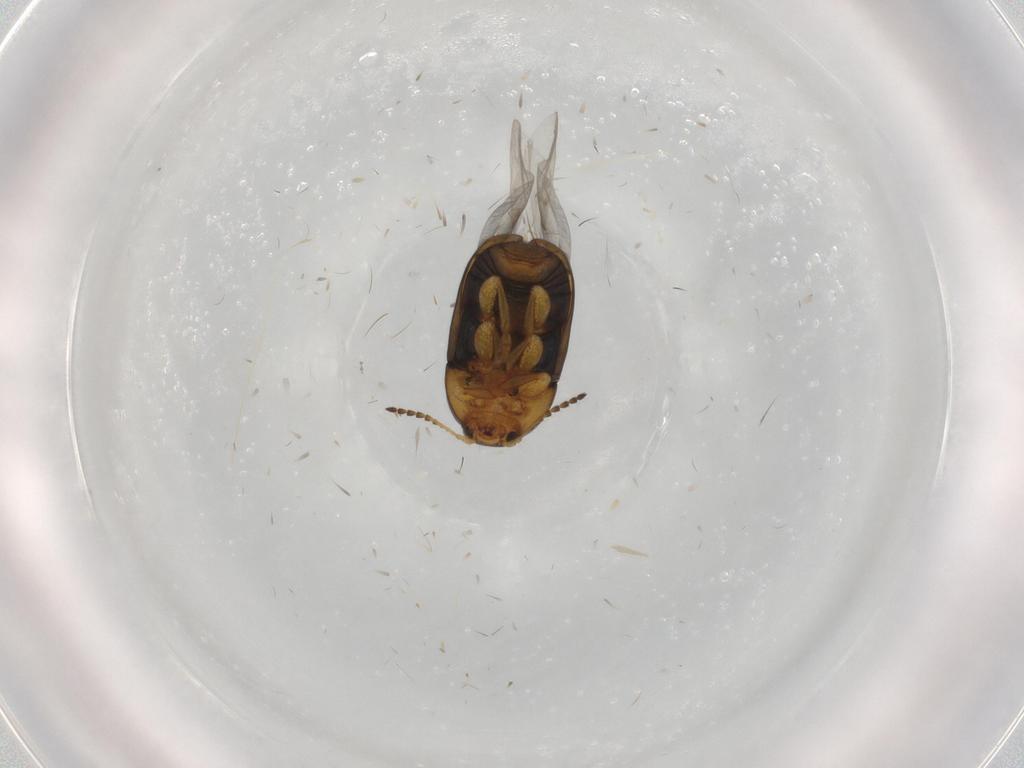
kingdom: Animalia
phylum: Arthropoda
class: Insecta
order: Coleoptera
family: Chrysomelidae
